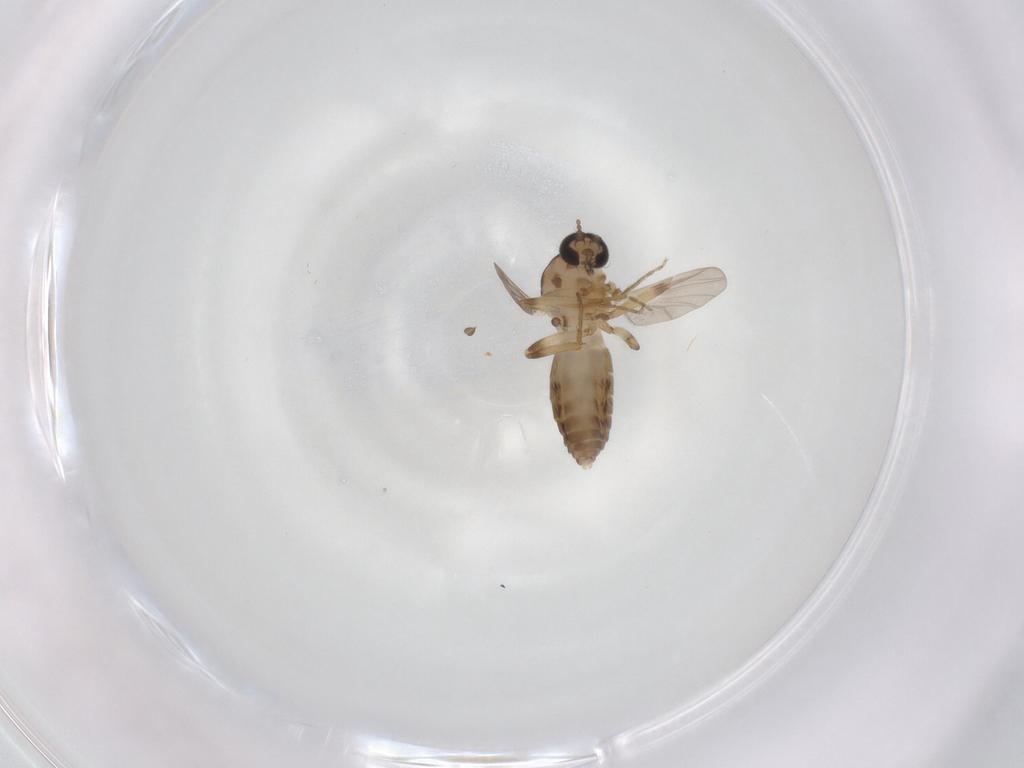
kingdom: Animalia
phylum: Arthropoda
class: Insecta
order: Diptera
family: Ceratopogonidae
